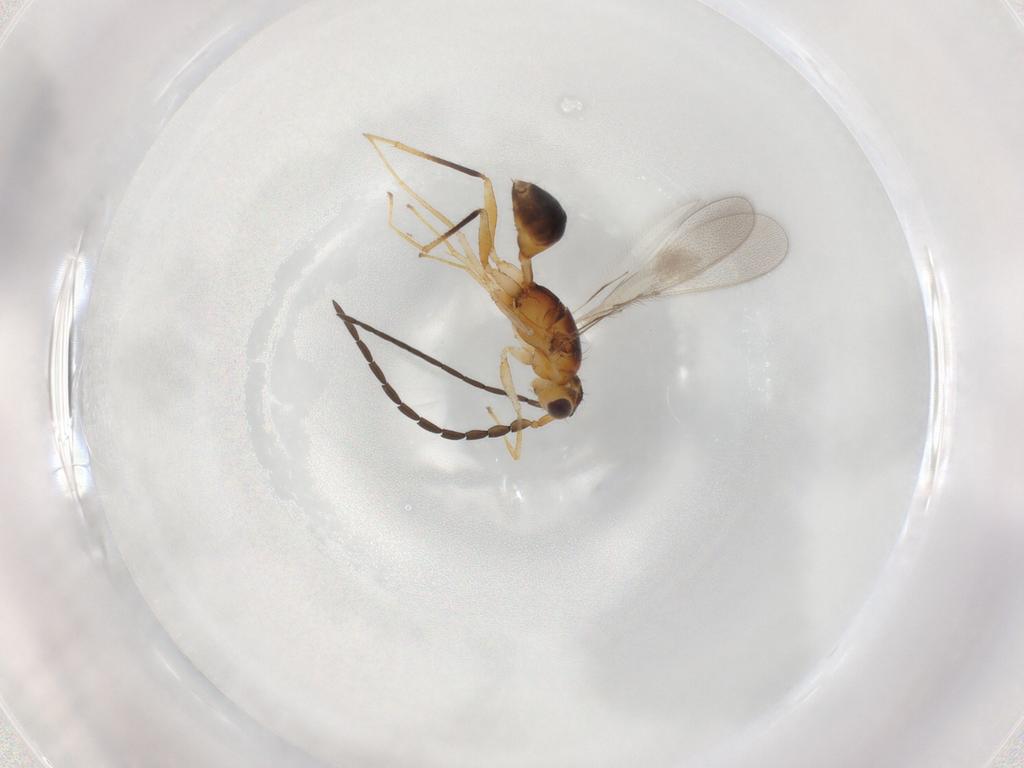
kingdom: Animalia
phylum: Arthropoda
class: Insecta
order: Hymenoptera
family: Mymaridae
